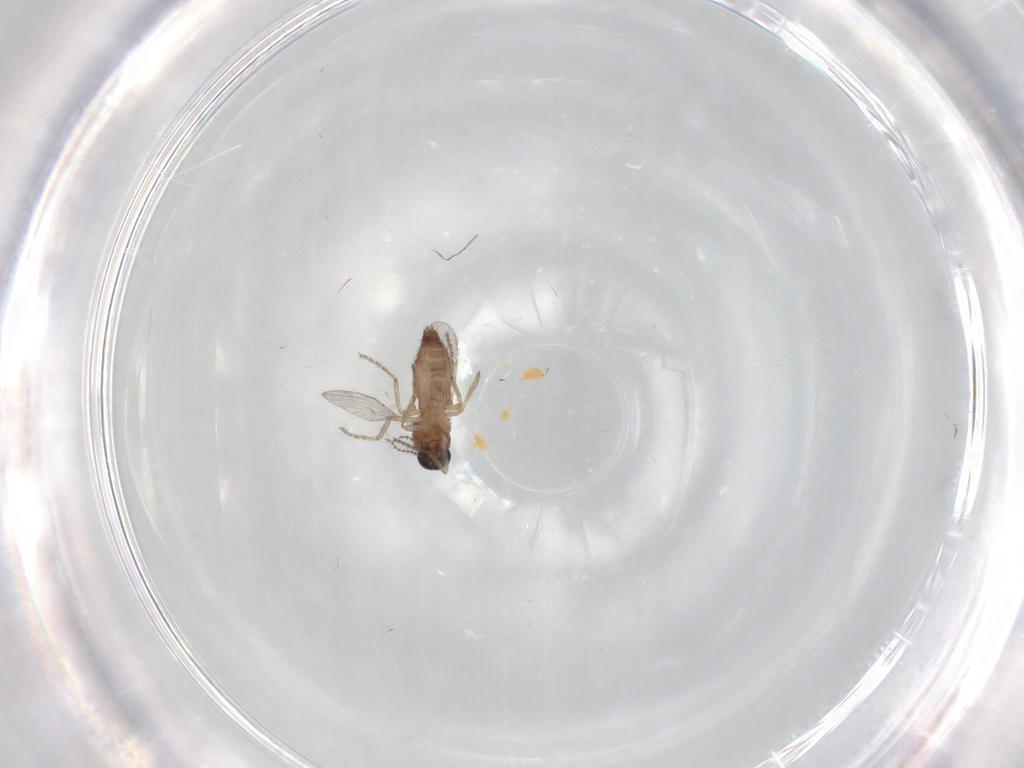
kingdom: Animalia
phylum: Arthropoda
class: Insecta
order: Diptera
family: Ceratopogonidae
